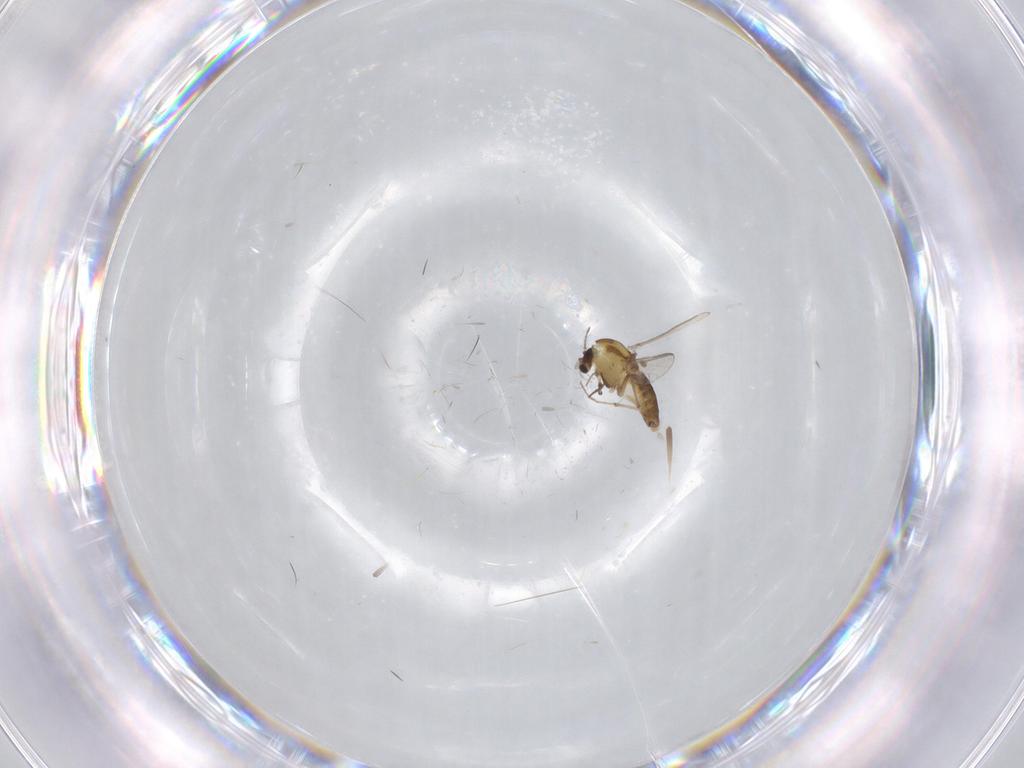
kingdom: Animalia
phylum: Arthropoda
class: Insecta
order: Diptera
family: Chironomidae
